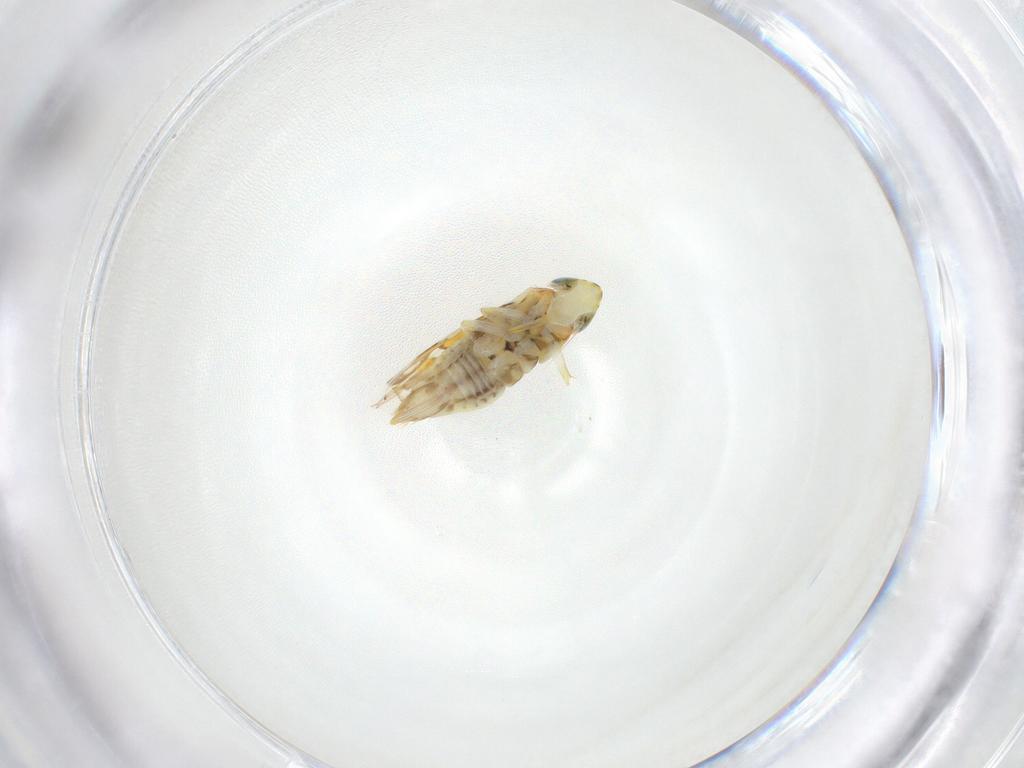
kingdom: Animalia
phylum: Arthropoda
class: Insecta
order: Hemiptera
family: Cicadellidae
